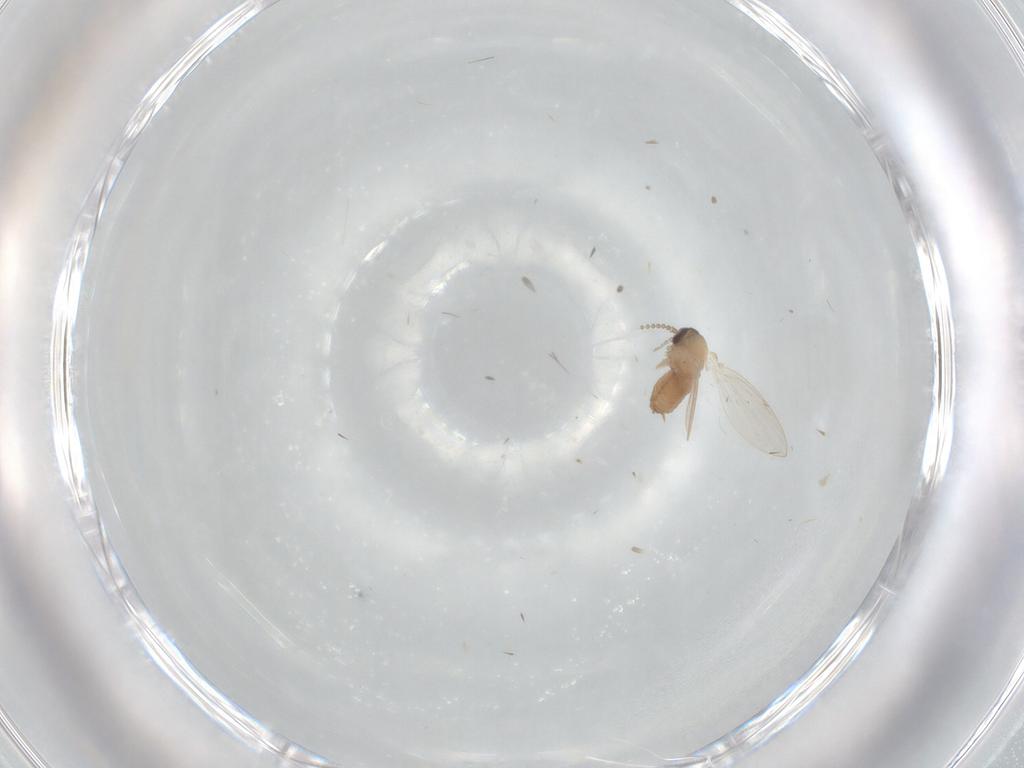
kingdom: Animalia
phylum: Arthropoda
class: Insecta
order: Diptera
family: Psychodidae
